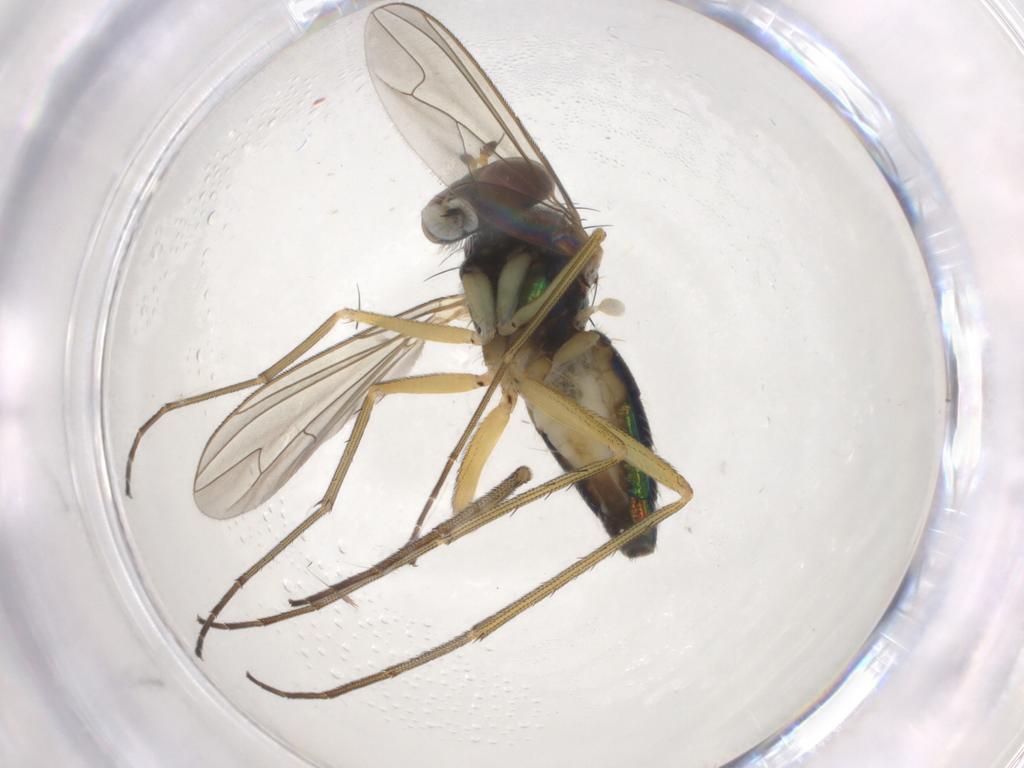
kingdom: Animalia
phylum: Arthropoda
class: Insecta
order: Diptera
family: Dolichopodidae
